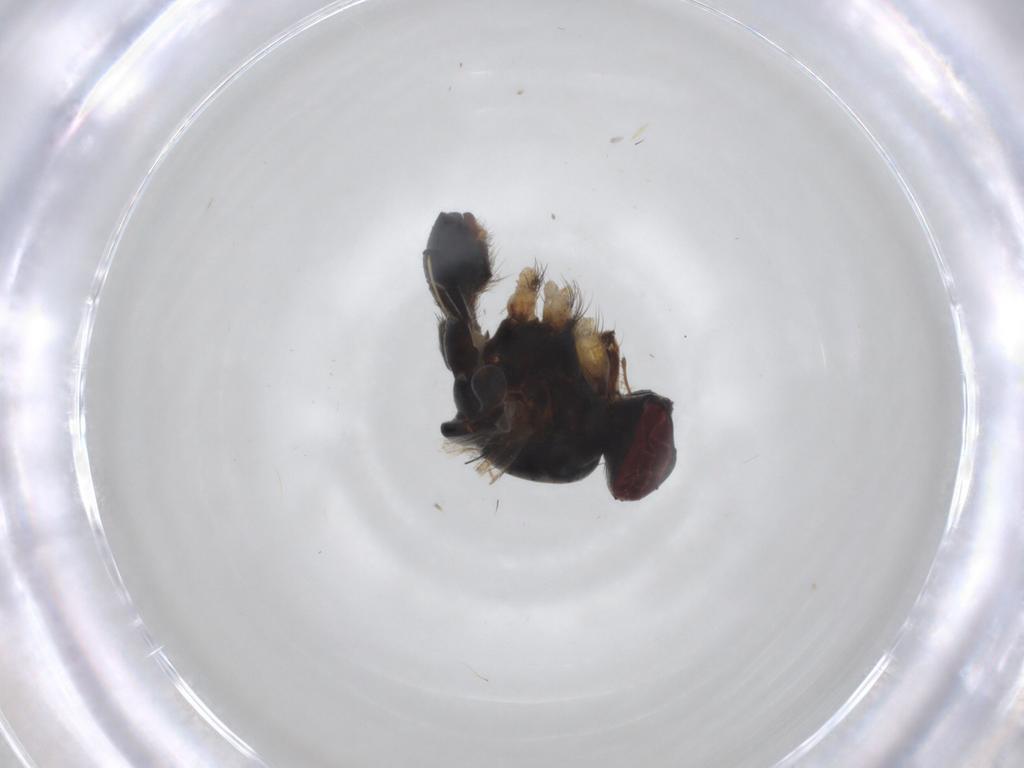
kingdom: Animalia
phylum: Arthropoda
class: Insecta
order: Diptera
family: Muscidae
